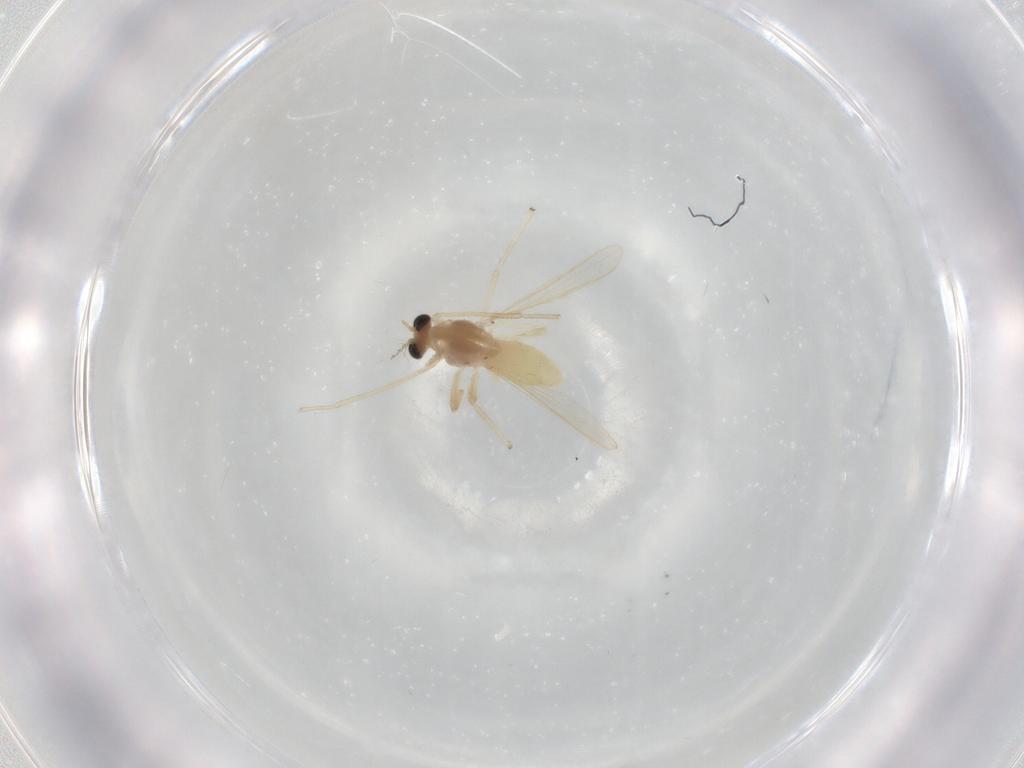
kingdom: Animalia
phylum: Arthropoda
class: Insecta
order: Diptera
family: Chironomidae
